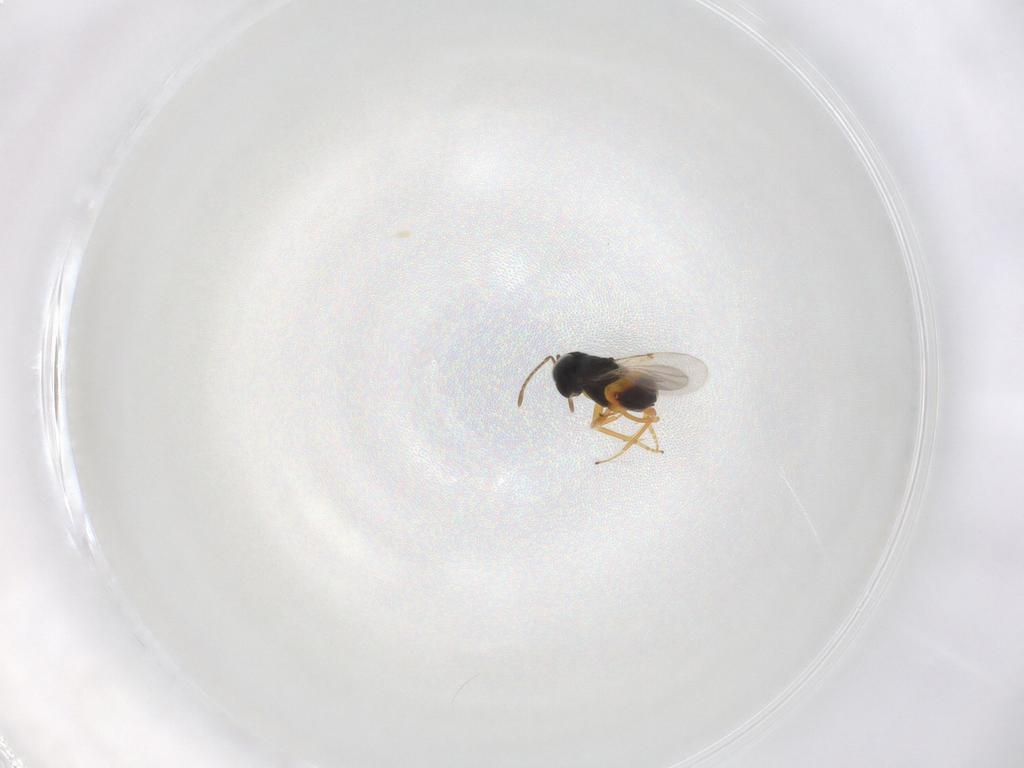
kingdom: Animalia
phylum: Arthropoda
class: Insecta
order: Hymenoptera
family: Encyrtidae
